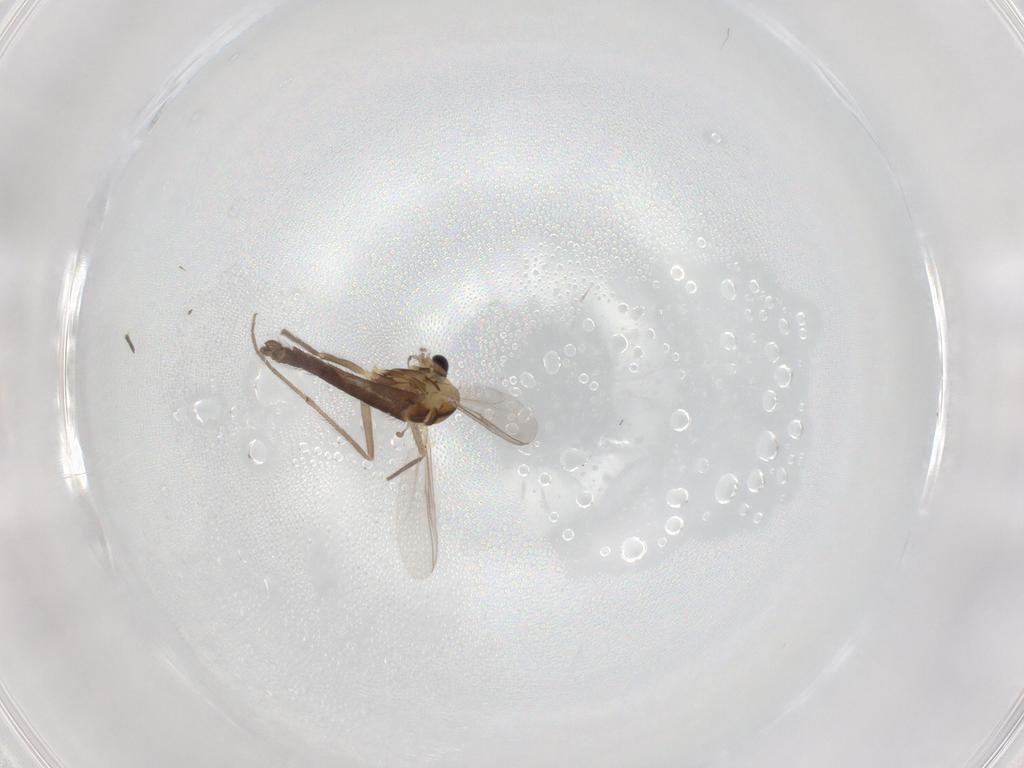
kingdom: Animalia
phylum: Arthropoda
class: Insecta
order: Diptera
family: Chironomidae
